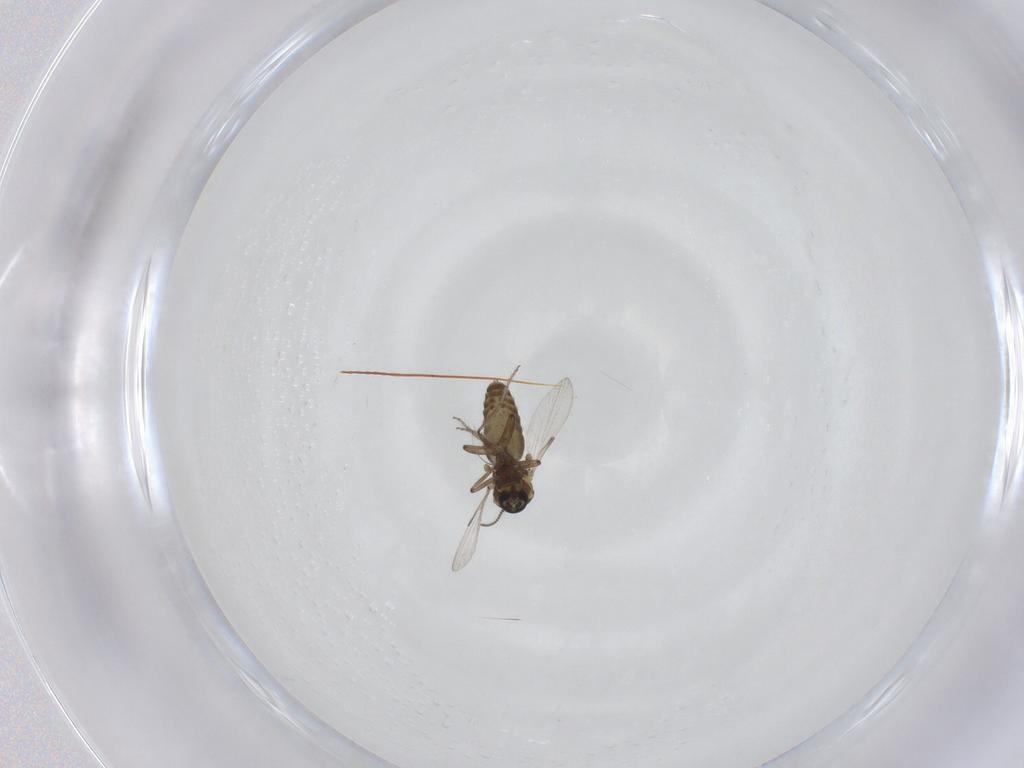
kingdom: Animalia
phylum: Arthropoda
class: Insecta
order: Diptera
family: Ceratopogonidae
